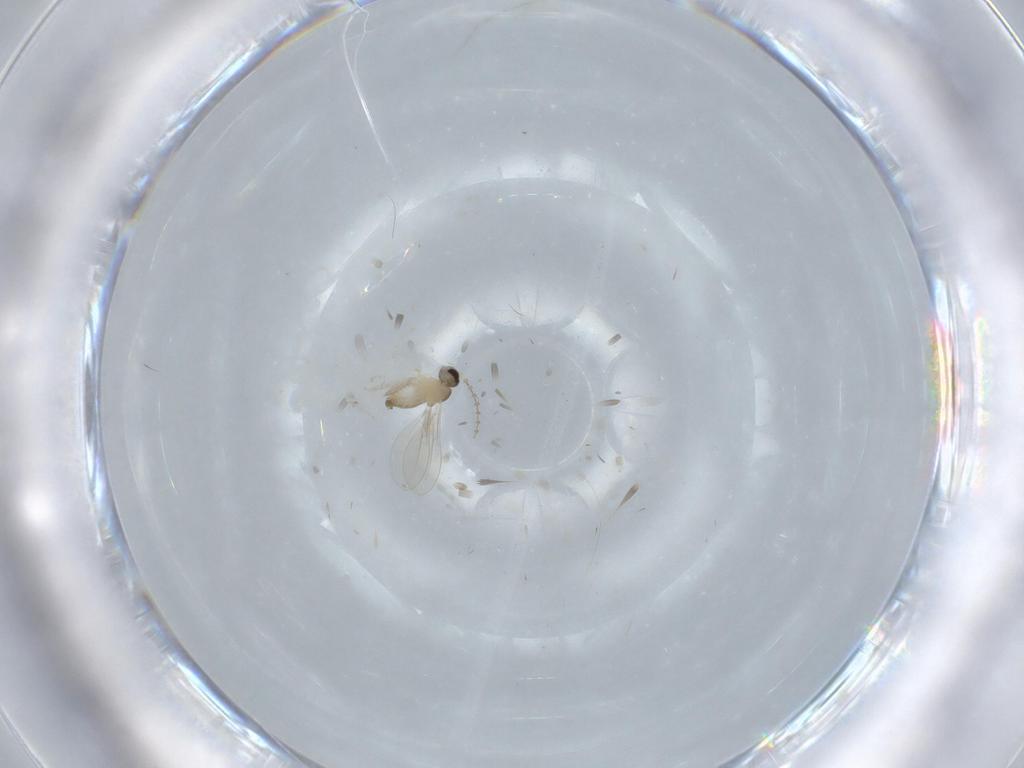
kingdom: Animalia
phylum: Arthropoda
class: Insecta
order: Diptera
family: Cecidomyiidae
